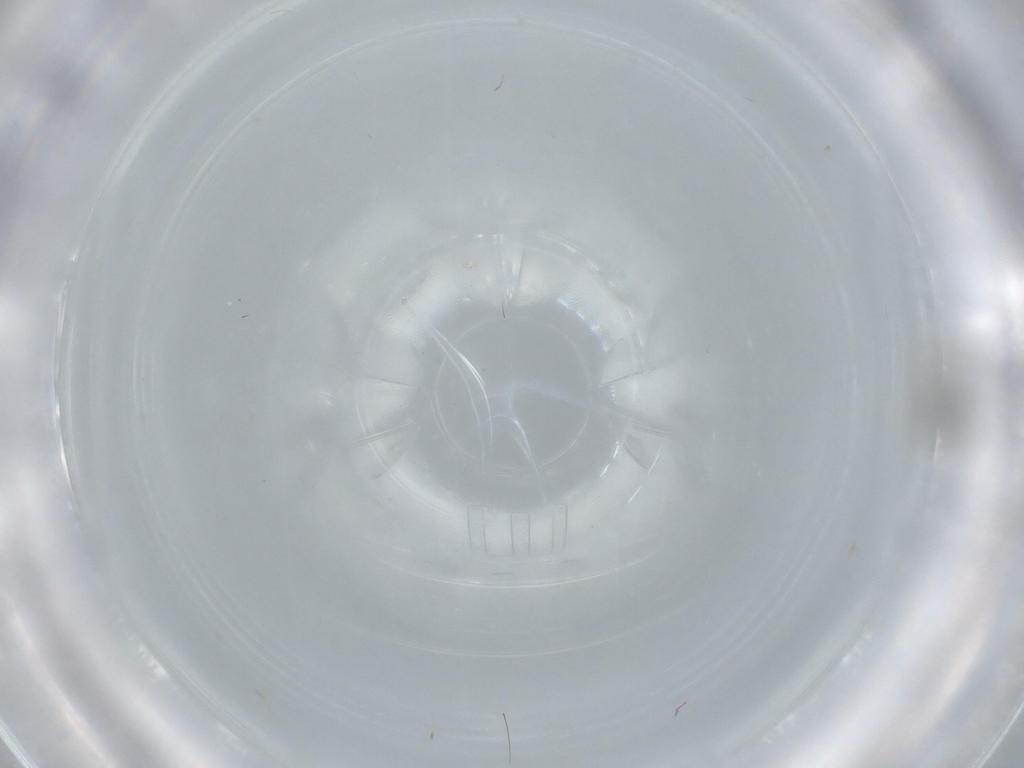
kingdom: Animalia
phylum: Arthropoda
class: Insecta
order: Diptera
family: Cecidomyiidae
